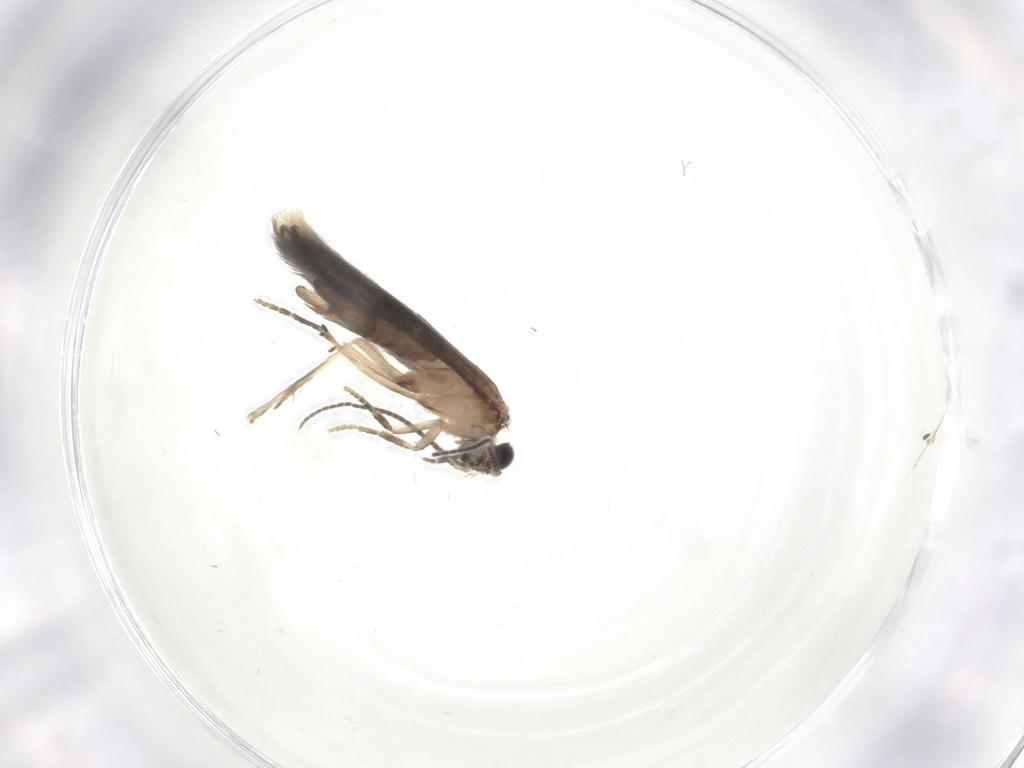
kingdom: Animalia
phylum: Arthropoda
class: Insecta
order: Trichoptera
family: Hydroptilidae
